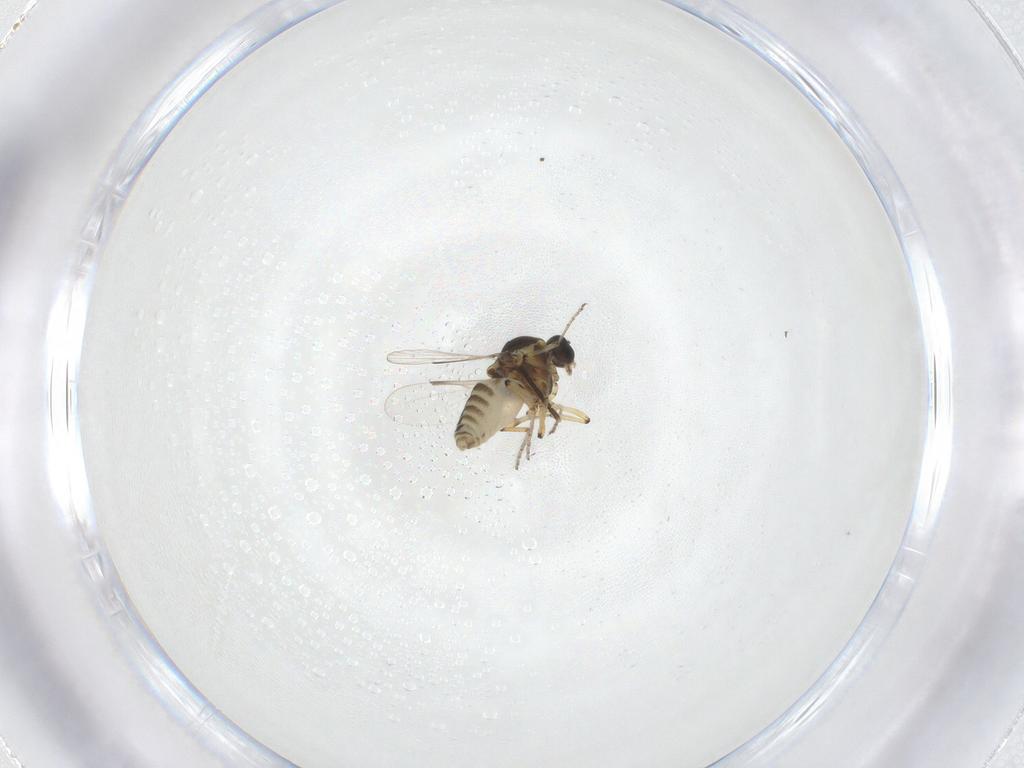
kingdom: Animalia
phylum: Arthropoda
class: Insecta
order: Diptera
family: Ceratopogonidae
